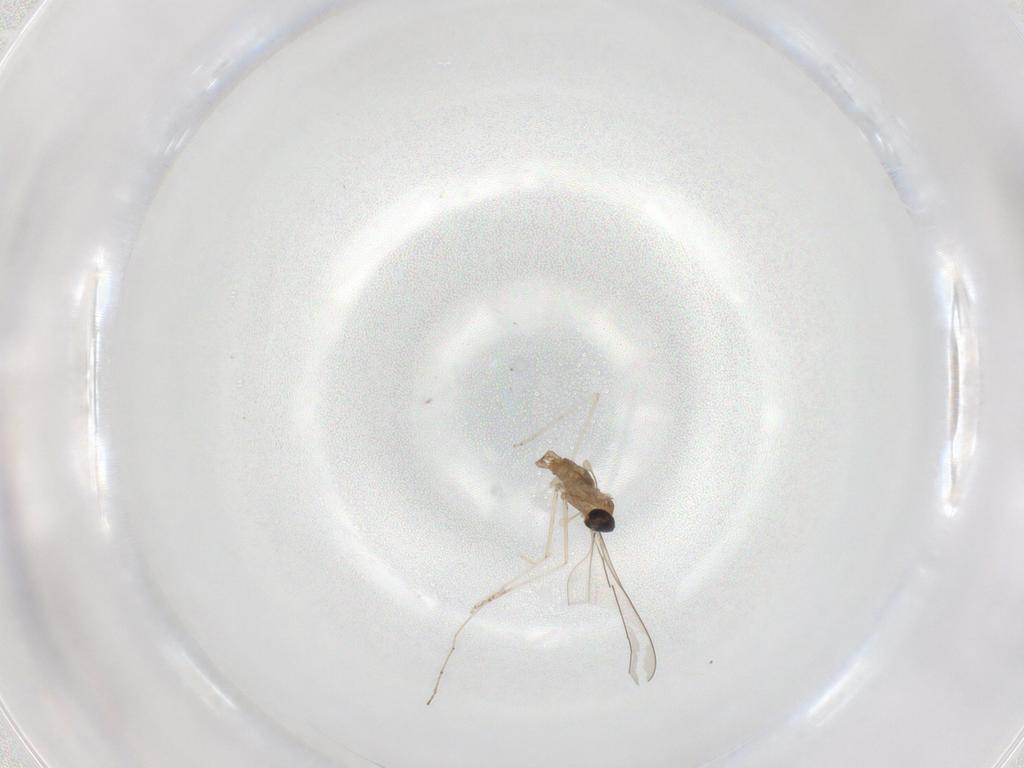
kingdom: Animalia
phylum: Arthropoda
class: Insecta
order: Diptera
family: Cecidomyiidae
